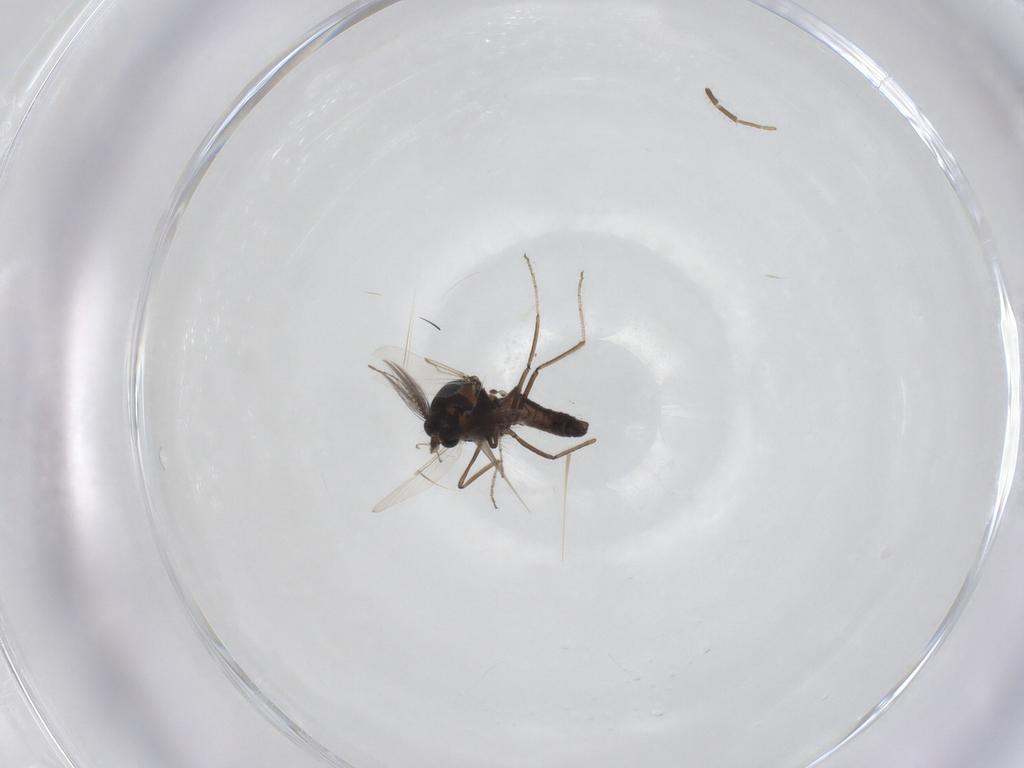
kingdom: Animalia
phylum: Arthropoda
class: Insecta
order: Diptera
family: Ceratopogonidae
